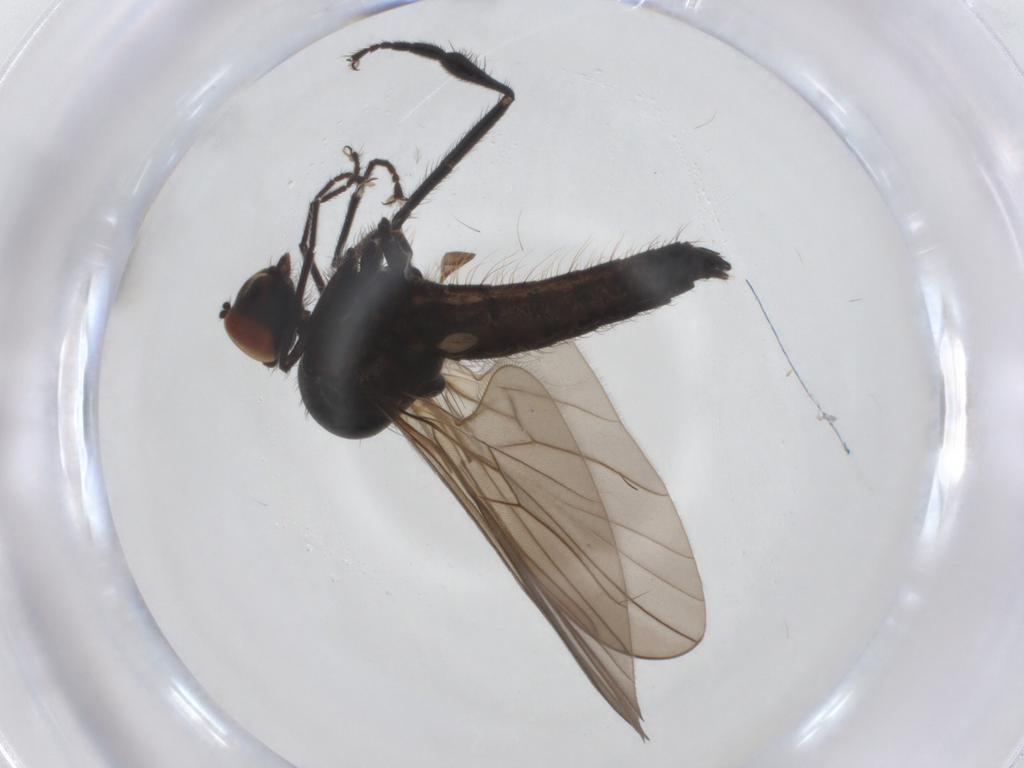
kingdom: Animalia
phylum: Arthropoda
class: Insecta
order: Diptera
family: Hybotidae
